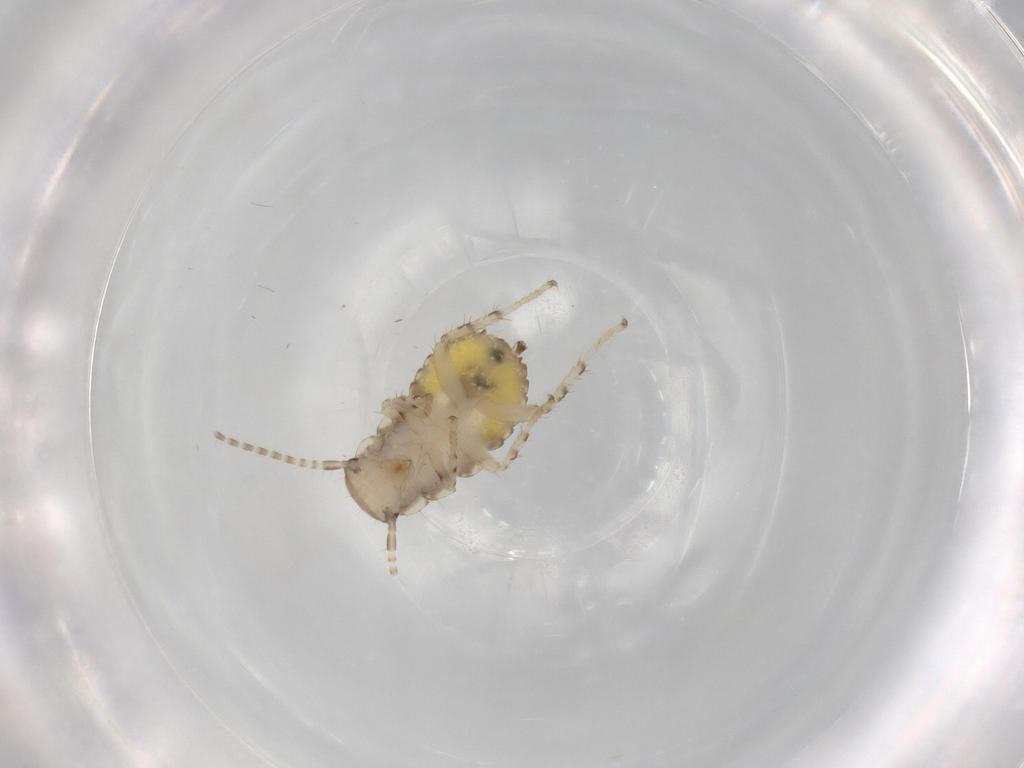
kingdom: Animalia
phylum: Arthropoda
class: Insecta
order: Blattodea
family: Ectobiidae
